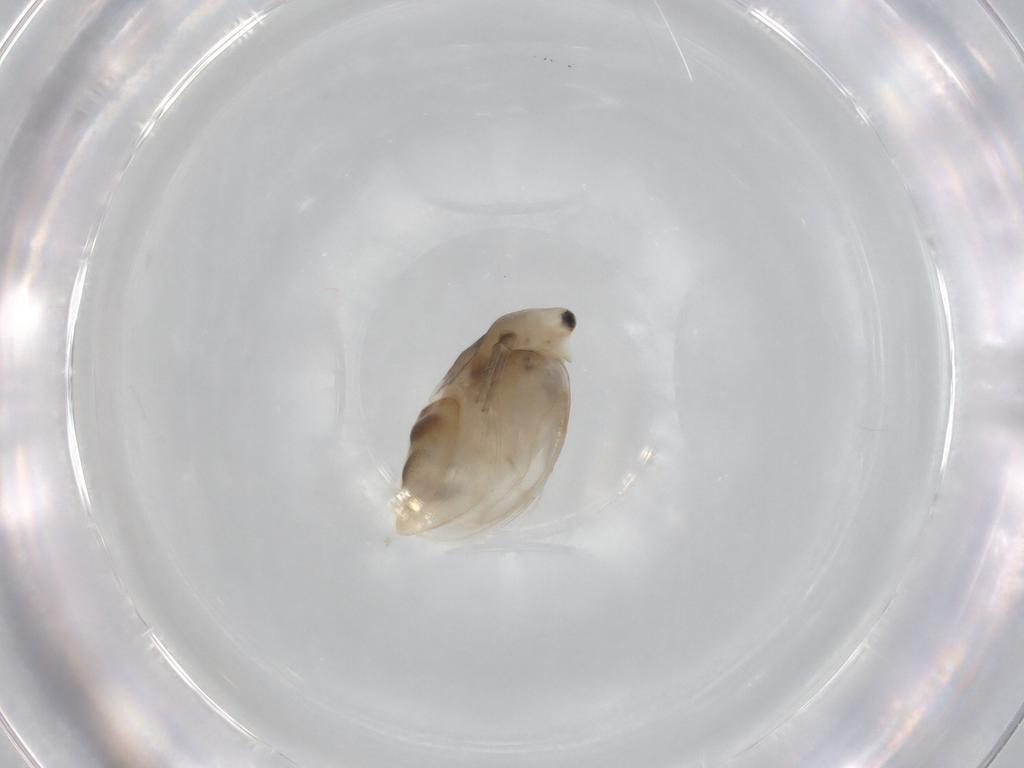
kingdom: Animalia
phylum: Arthropoda
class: Branchiopoda
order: Diplostraca
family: Daphniidae
